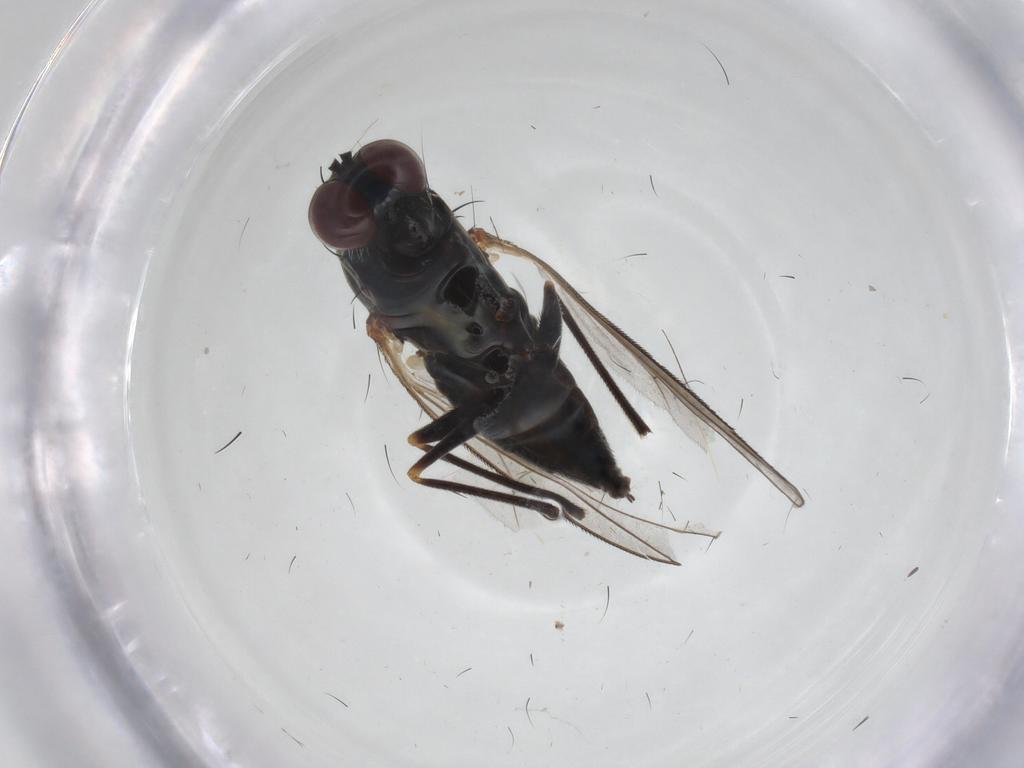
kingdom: Animalia
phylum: Arthropoda
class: Insecta
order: Diptera
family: Dolichopodidae
